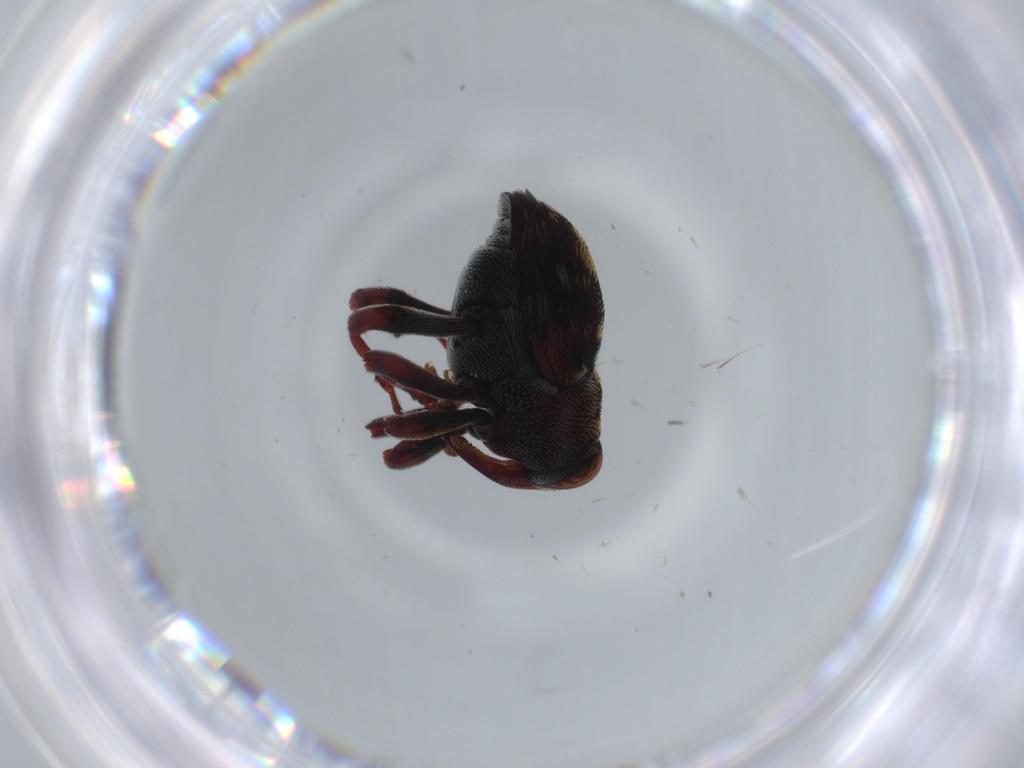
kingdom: Animalia
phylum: Arthropoda
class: Insecta
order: Coleoptera
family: Curculionidae
